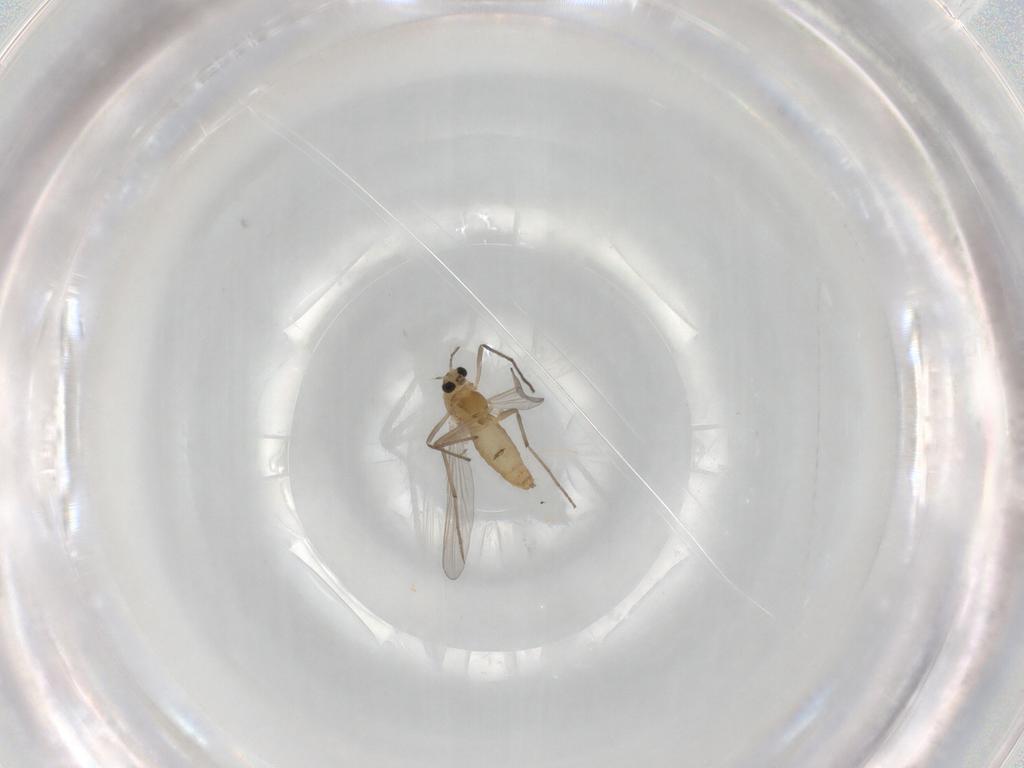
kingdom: Animalia
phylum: Arthropoda
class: Insecta
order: Diptera
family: Chironomidae
